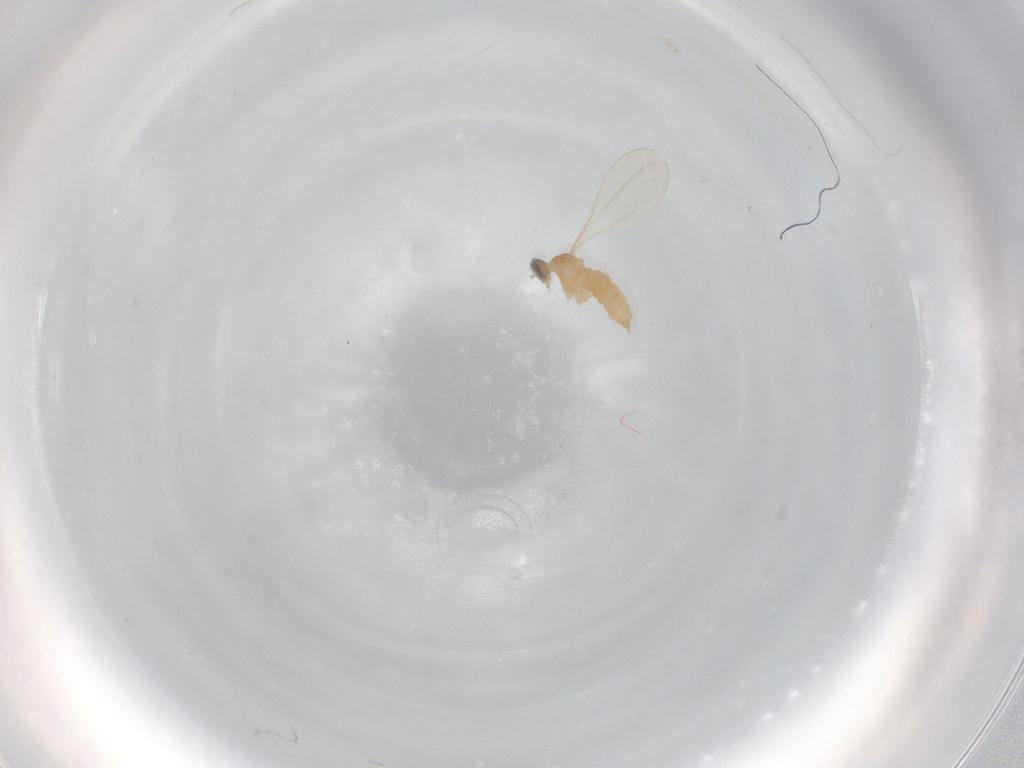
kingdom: Animalia
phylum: Arthropoda
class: Insecta
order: Diptera
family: Cecidomyiidae
